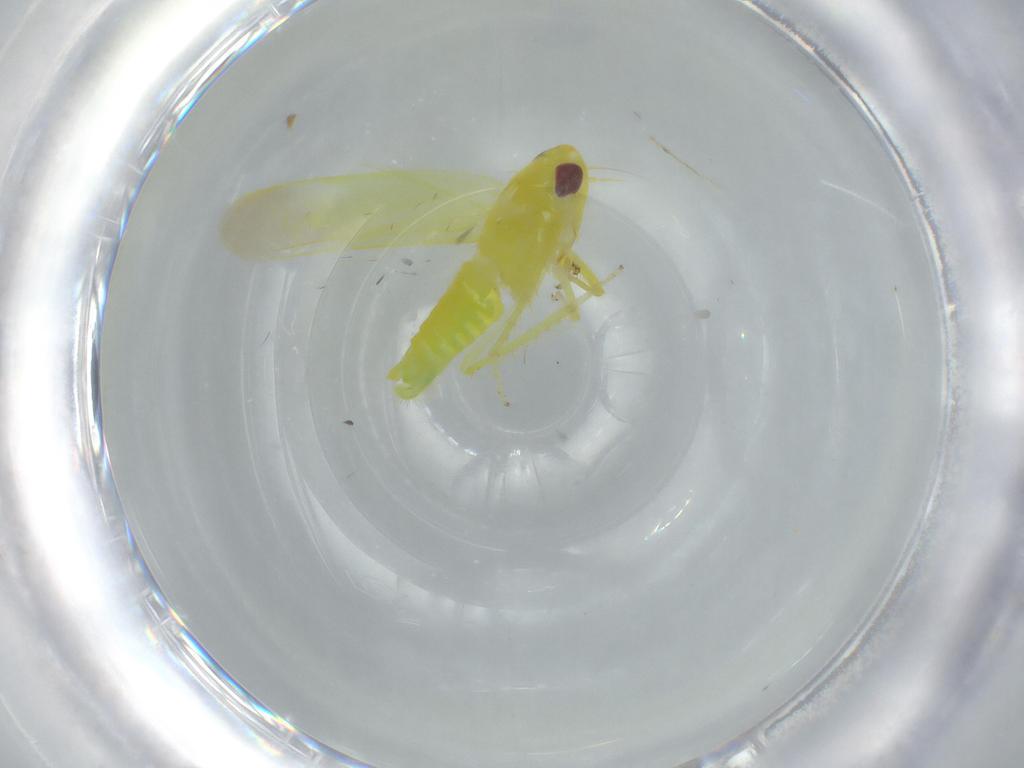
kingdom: Animalia
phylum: Arthropoda
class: Insecta
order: Hemiptera
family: Cicadellidae
